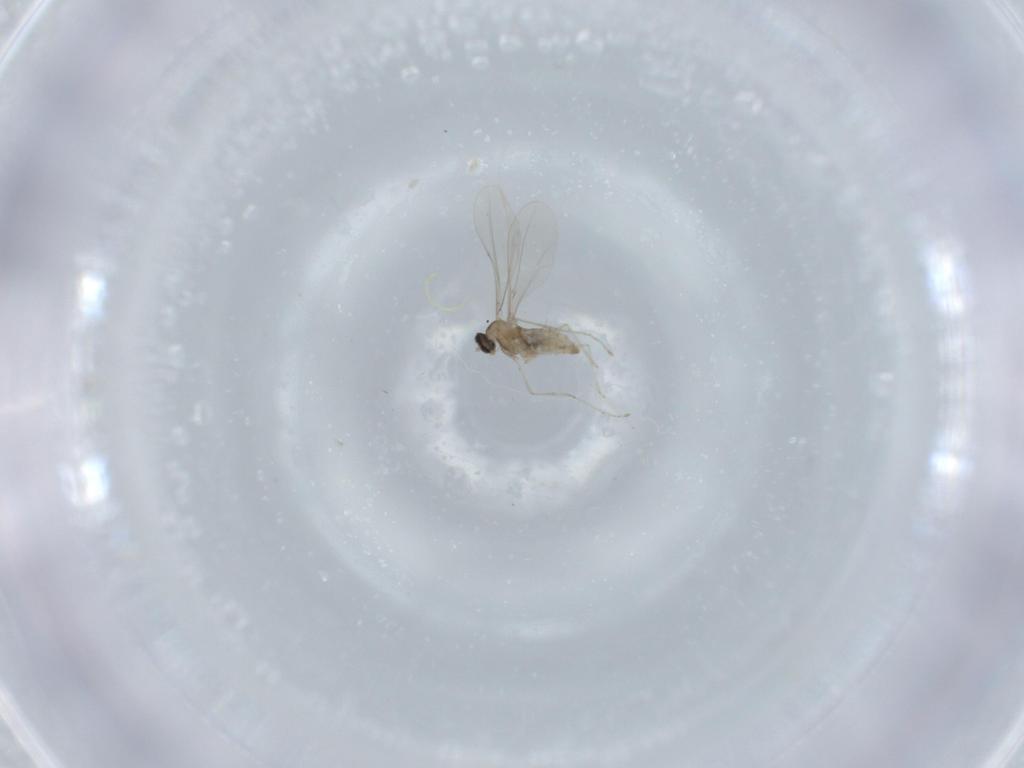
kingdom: Animalia
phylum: Arthropoda
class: Insecta
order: Diptera
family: Cecidomyiidae
